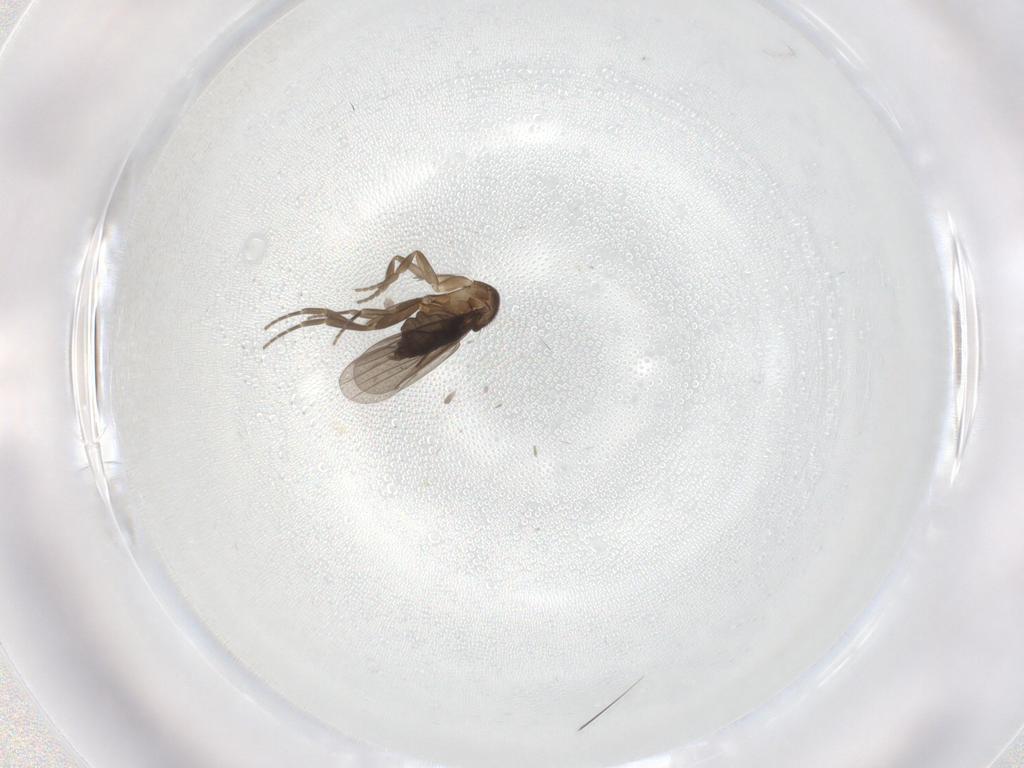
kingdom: Animalia
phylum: Arthropoda
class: Insecta
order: Diptera
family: Phoridae
